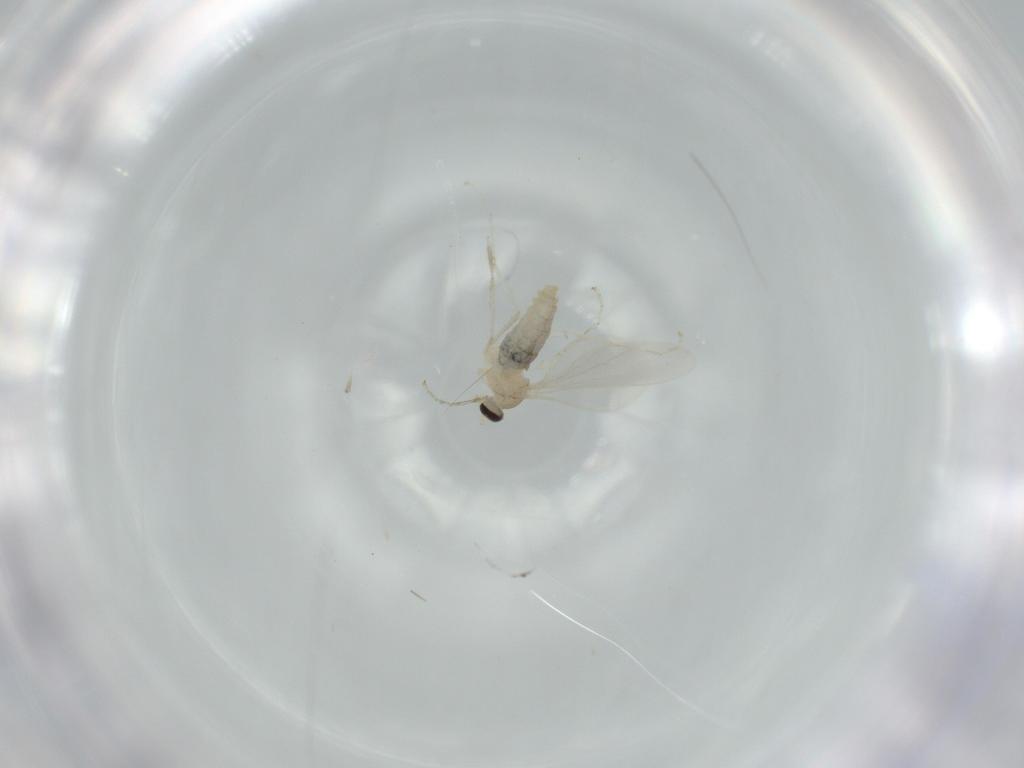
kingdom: Animalia
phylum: Arthropoda
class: Insecta
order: Diptera
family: Cecidomyiidae
